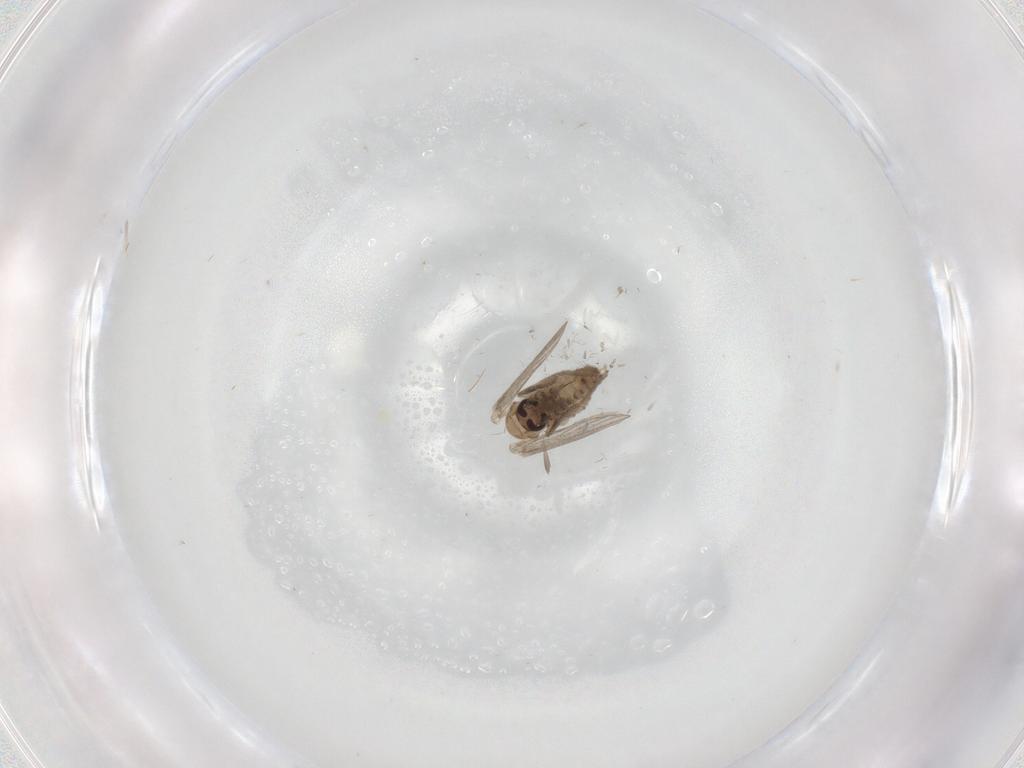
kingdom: Animalia
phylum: Arthropoda
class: Insecta
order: Diptera
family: Psychodidae
